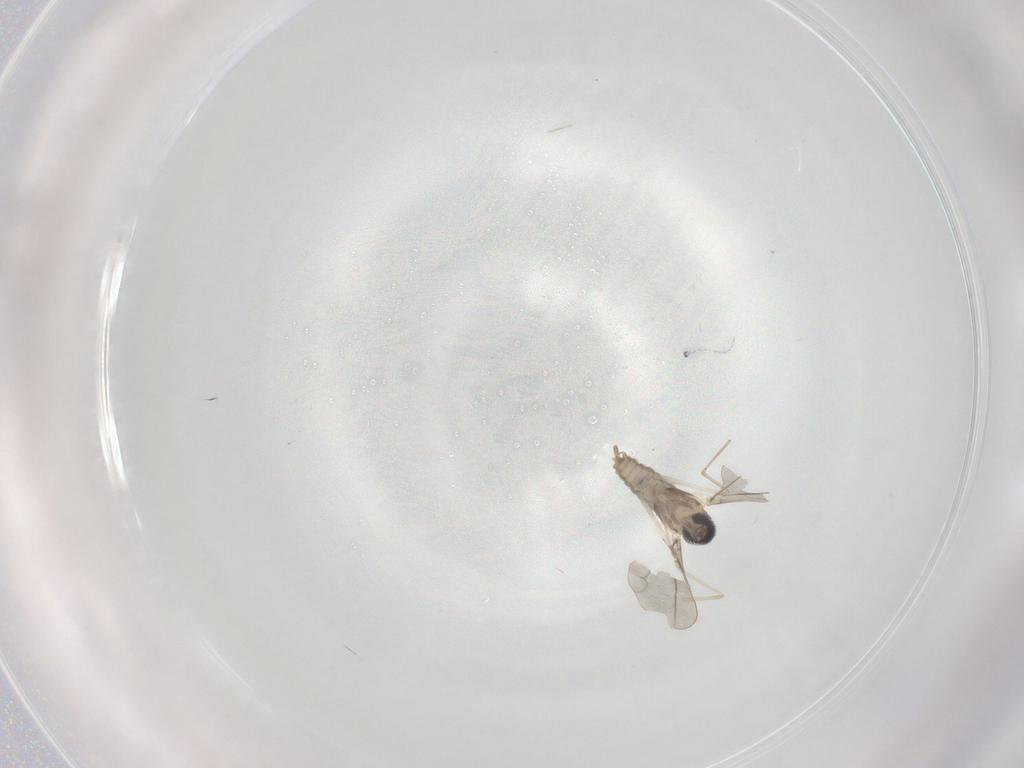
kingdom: Animalia
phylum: Arthropoda
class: Insecta
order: Diptera
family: Cecidomyiidae
